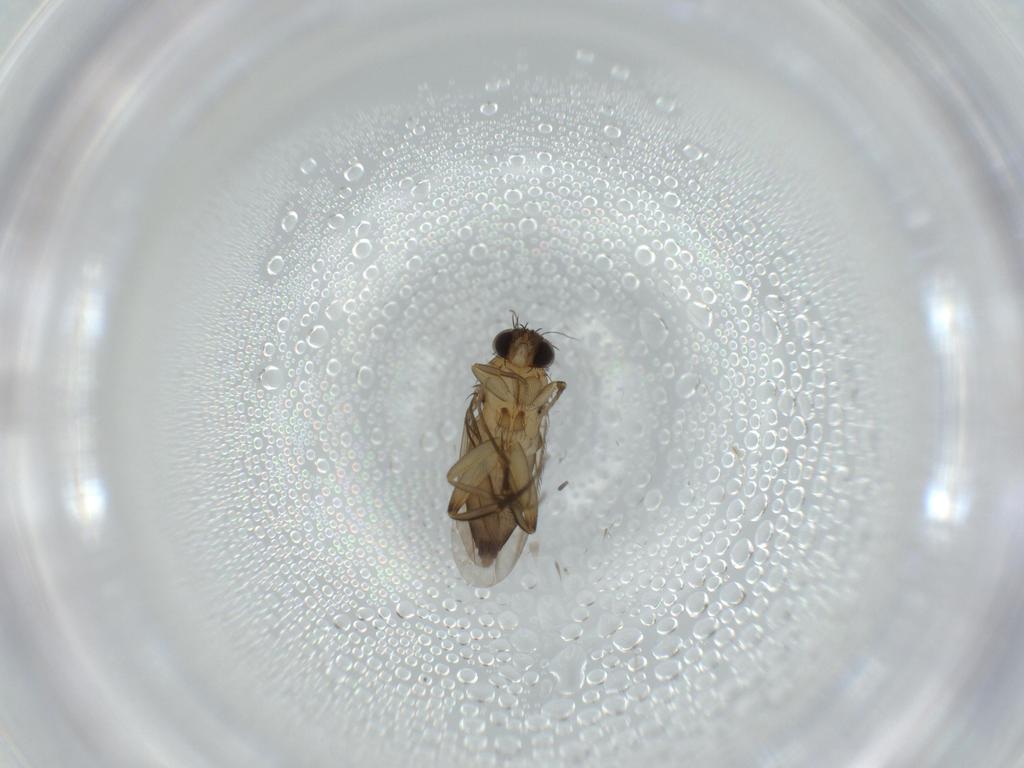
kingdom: Animalia
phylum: Arthropoda
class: Insecta
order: Diptera
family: Phoridae
